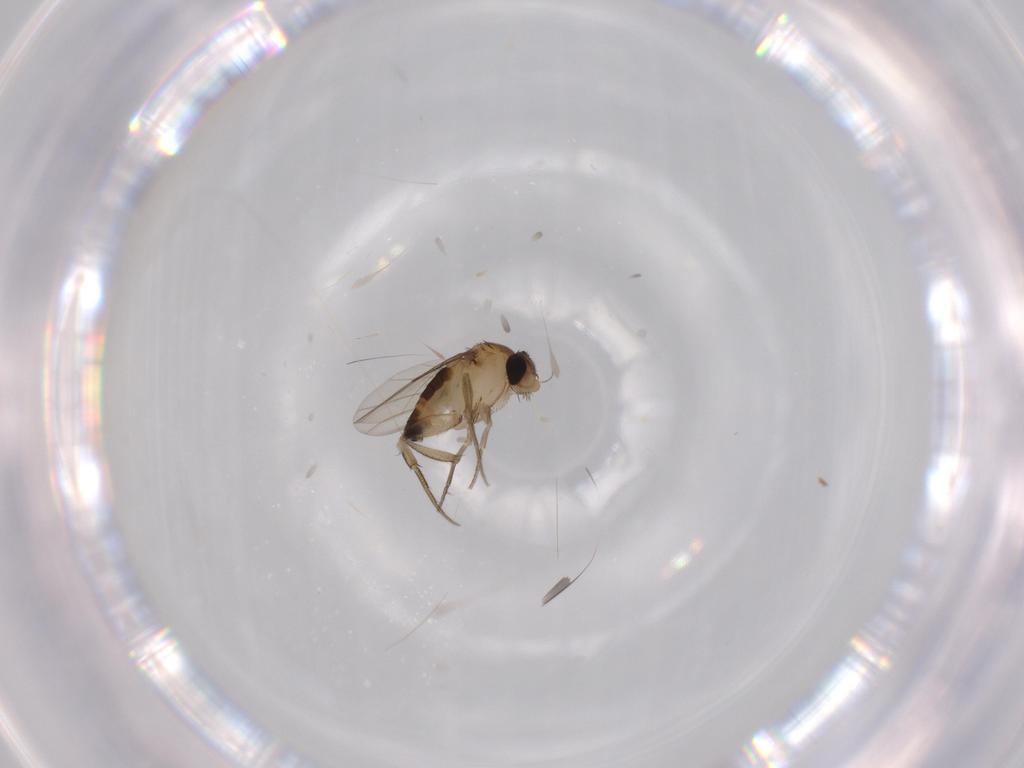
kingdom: Animalia
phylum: Arthropoda
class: Insecta
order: Diptera
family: Phoridae
